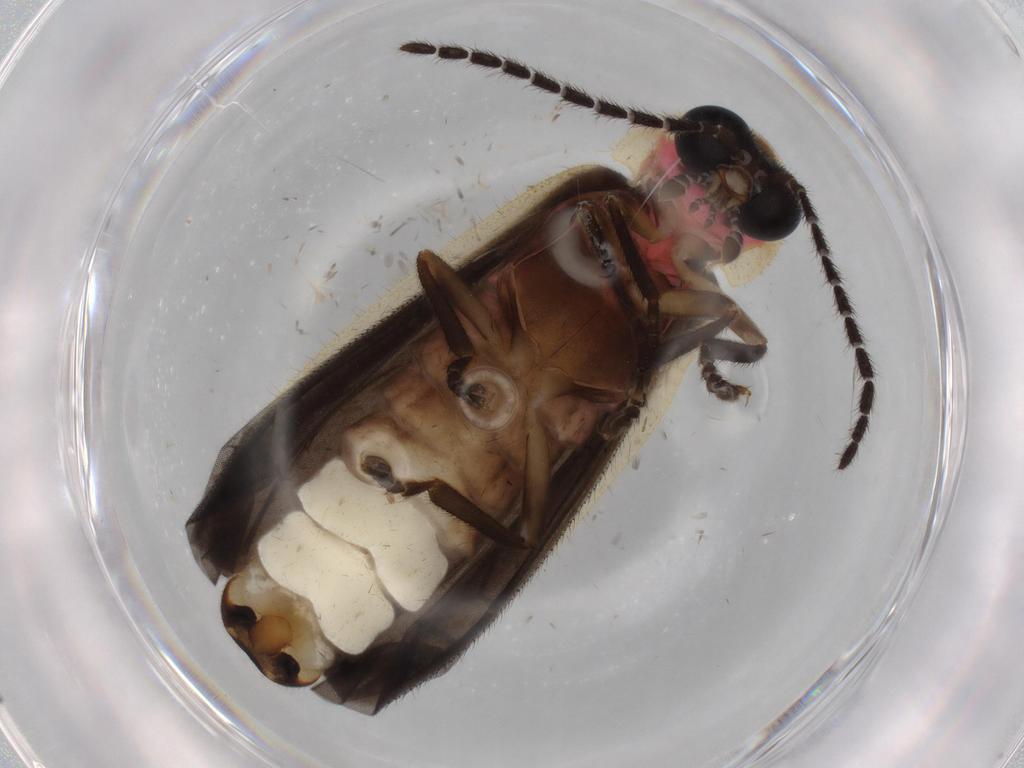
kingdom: Animalia
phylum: Arthropoda
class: Insecta
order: Coleoptera
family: Lampyridae
